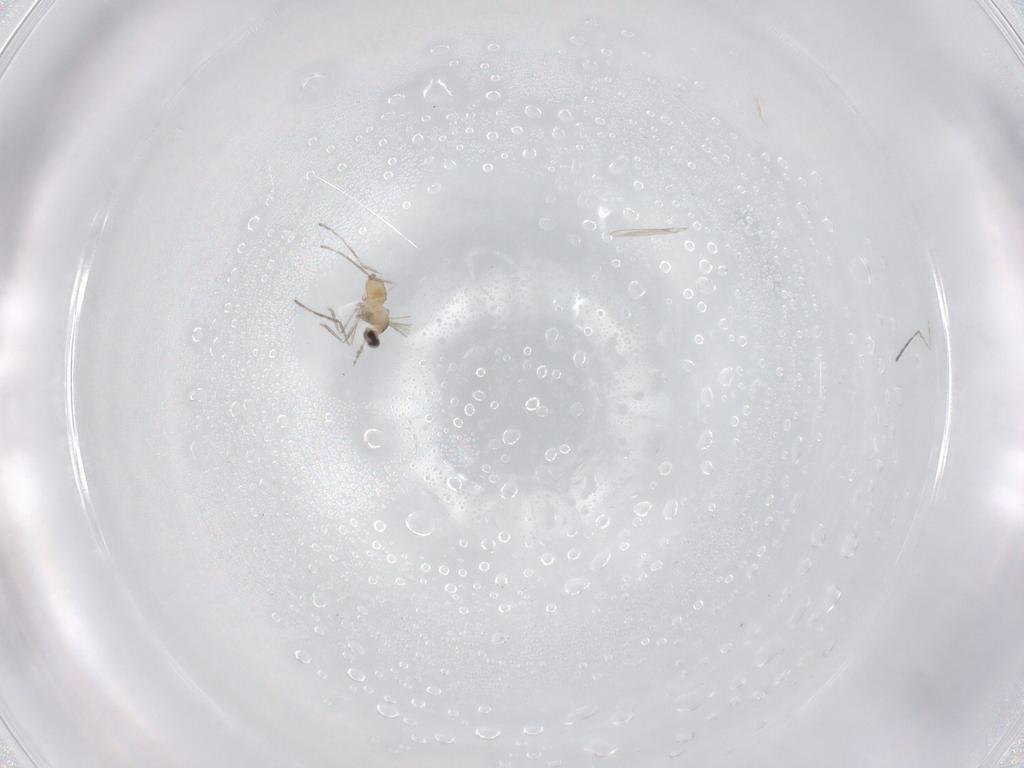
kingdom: Animalia
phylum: Arthropoda
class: Insecta
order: Diptera
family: Cecidomyiidae
